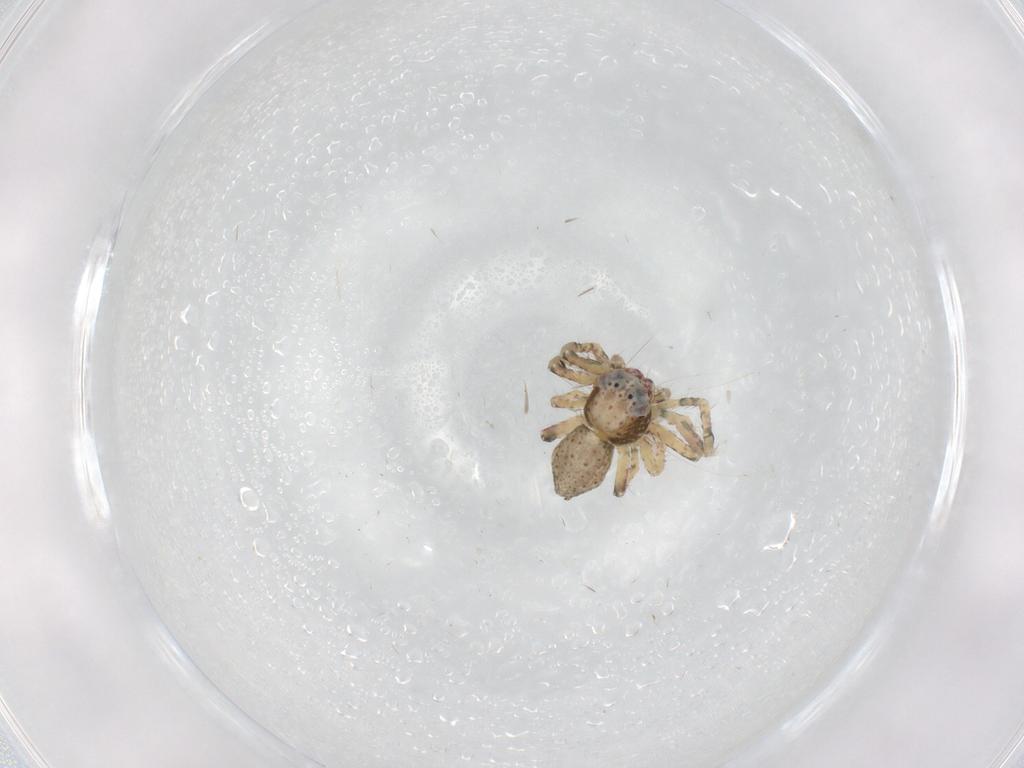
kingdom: Animalia
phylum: Arthropoda
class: Arachnida
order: Araneae
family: Thomisidae
